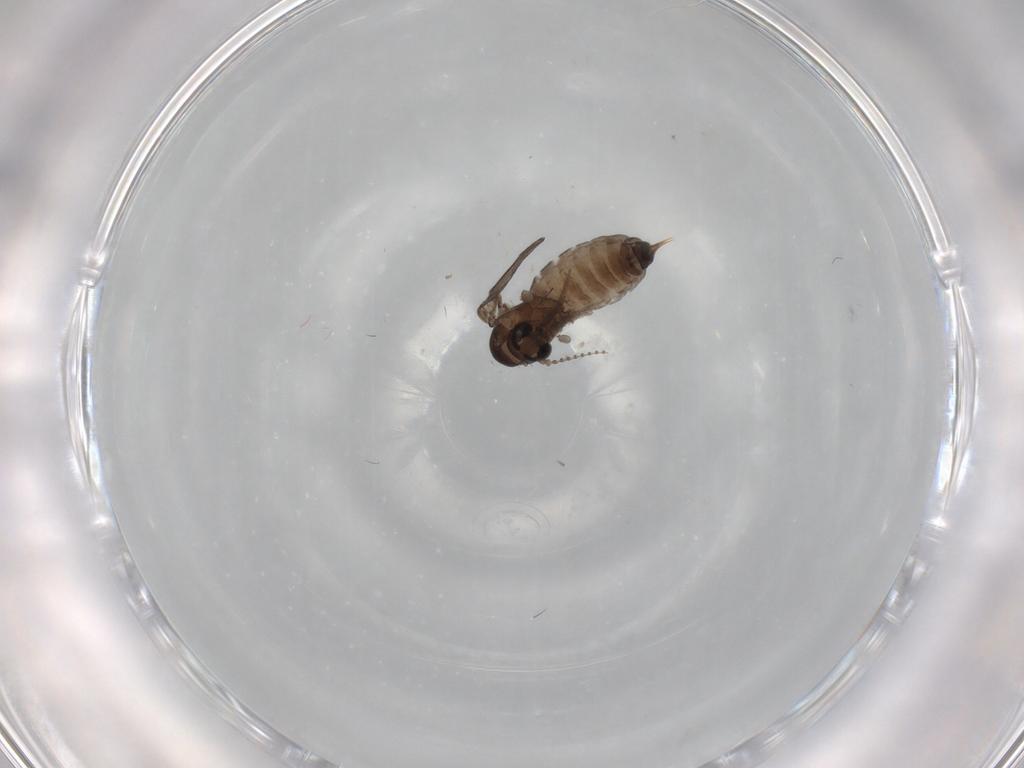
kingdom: Animalia
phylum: Arthropoda
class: Insecta
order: Diptera
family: Psychodidae
